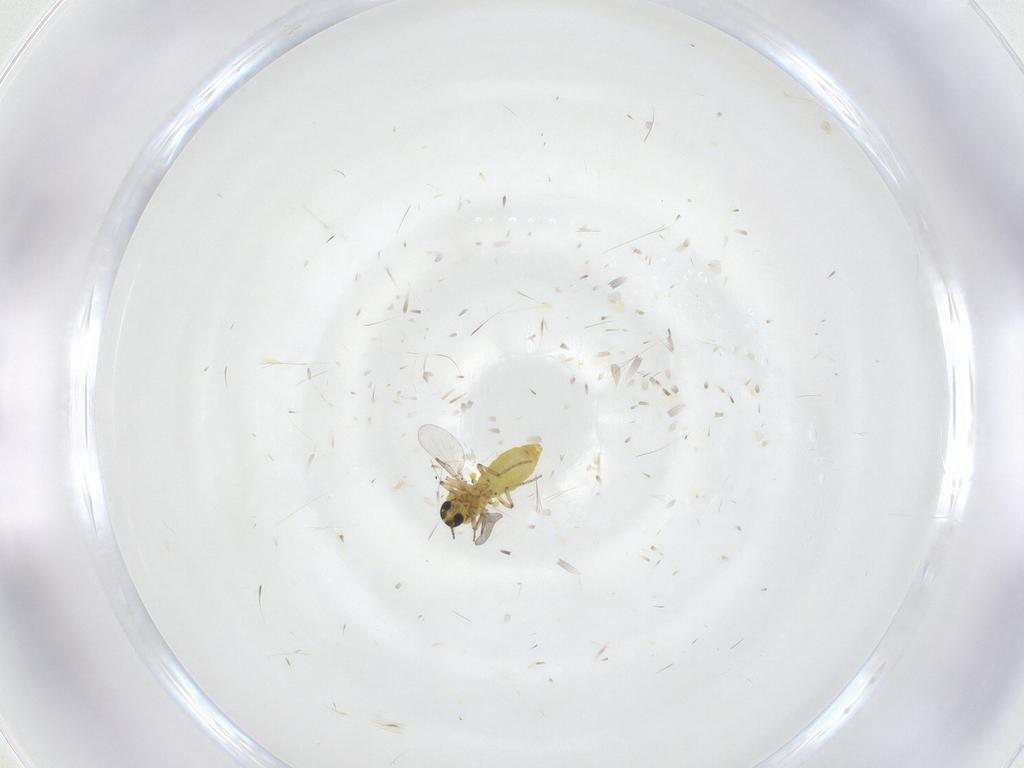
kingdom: Animalia
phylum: Arthropoda
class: Insecta
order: Diptera
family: Ceratopogonidae
